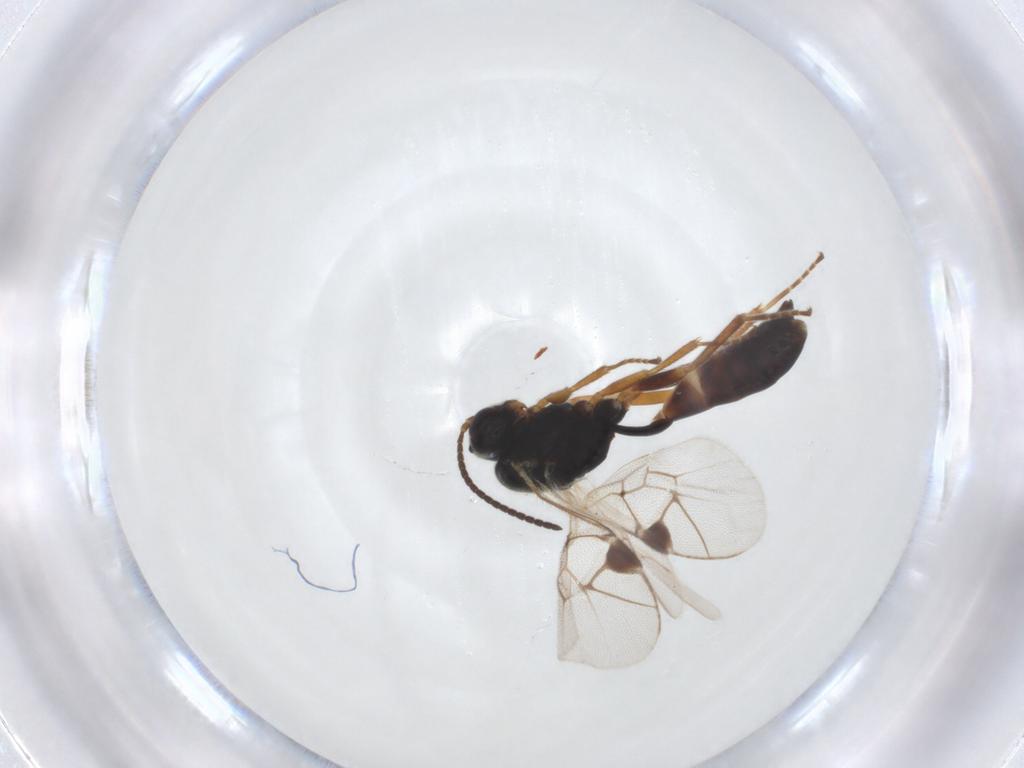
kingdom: Animalia
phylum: Arthropoda
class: Insecta
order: Hymenoptera
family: Ichneumonidae
